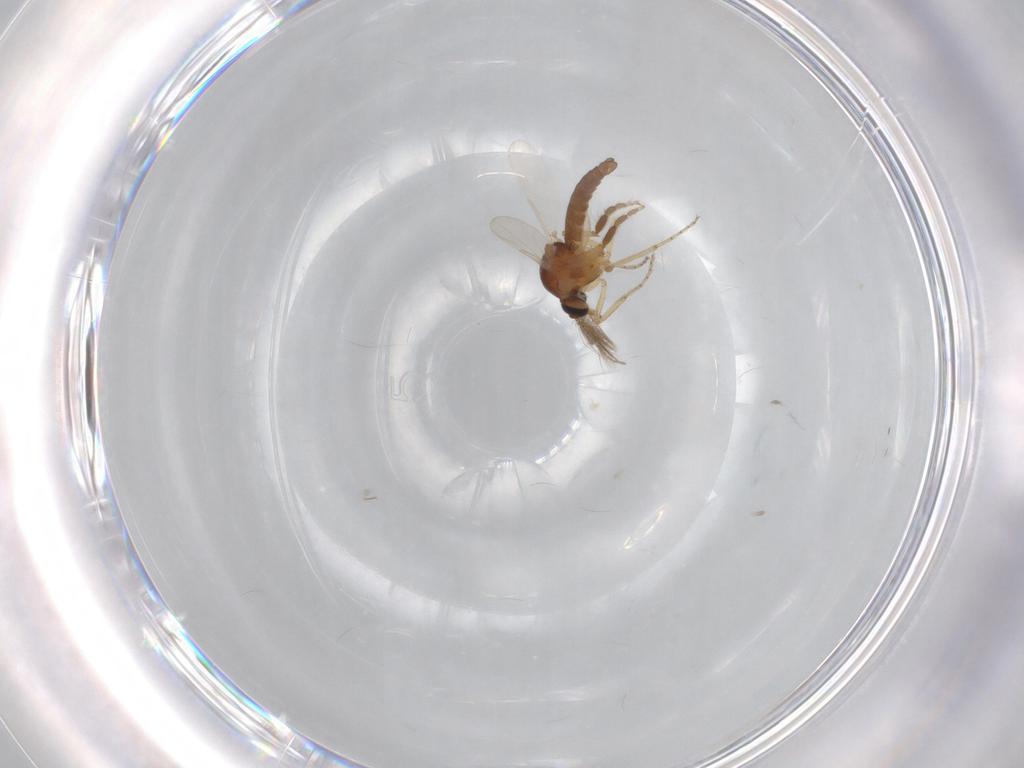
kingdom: Animalia
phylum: Arthropoda
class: Insecta
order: Diptera
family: Ceratopogonidae
